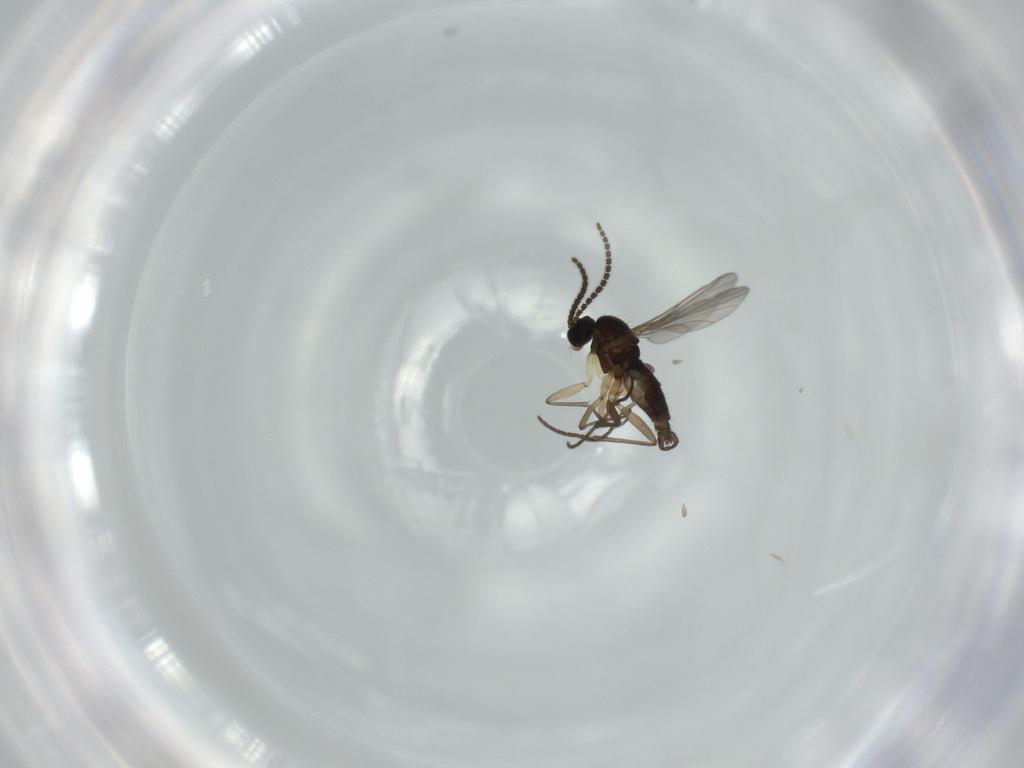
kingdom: Animalia
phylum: Arthropoda
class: Insecta
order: Diptera
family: Sciaridae
